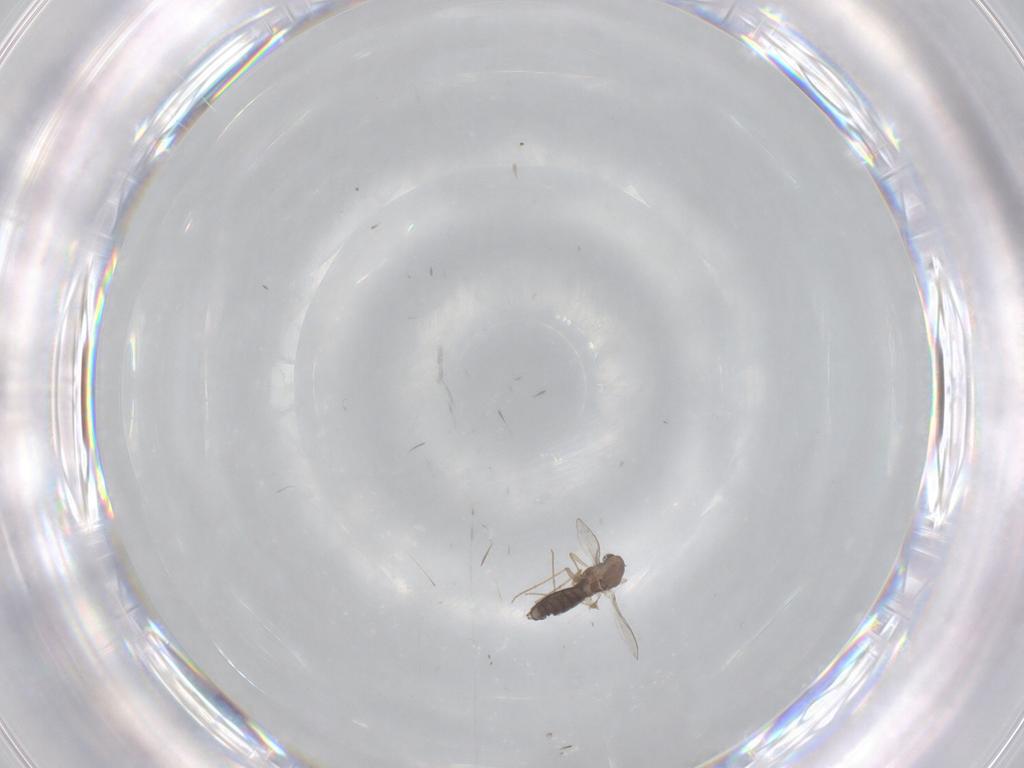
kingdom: Animalia
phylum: Arthropoda
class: Insecta
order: Diptera
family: Chironomidae
